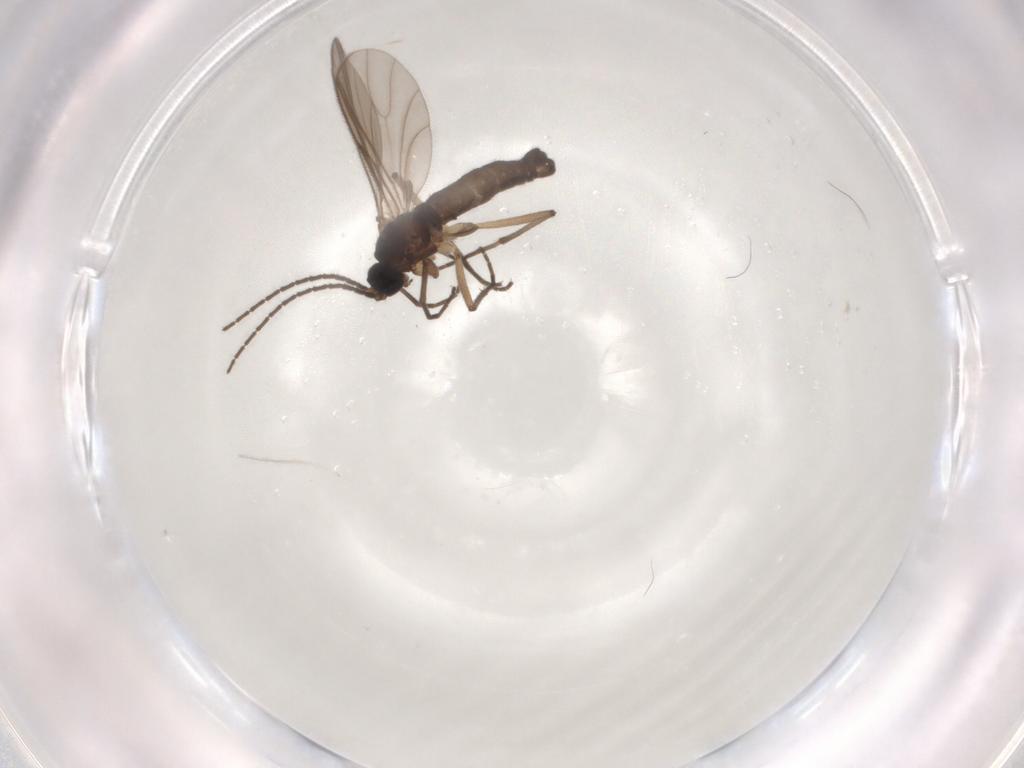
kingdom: Animalia
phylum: Arthropoda
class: Insecta
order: Diptera
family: Sciaridae
